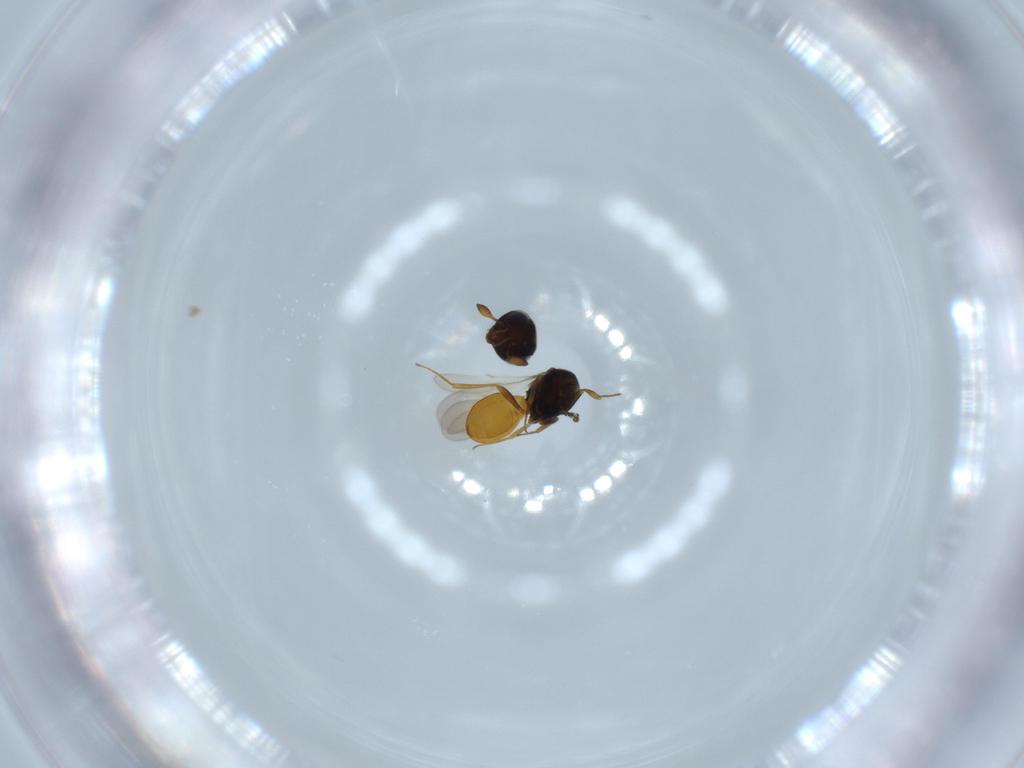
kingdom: Animalia
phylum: Arthropoda
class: Insecta
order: Hymenoptera
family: Scelionidae
